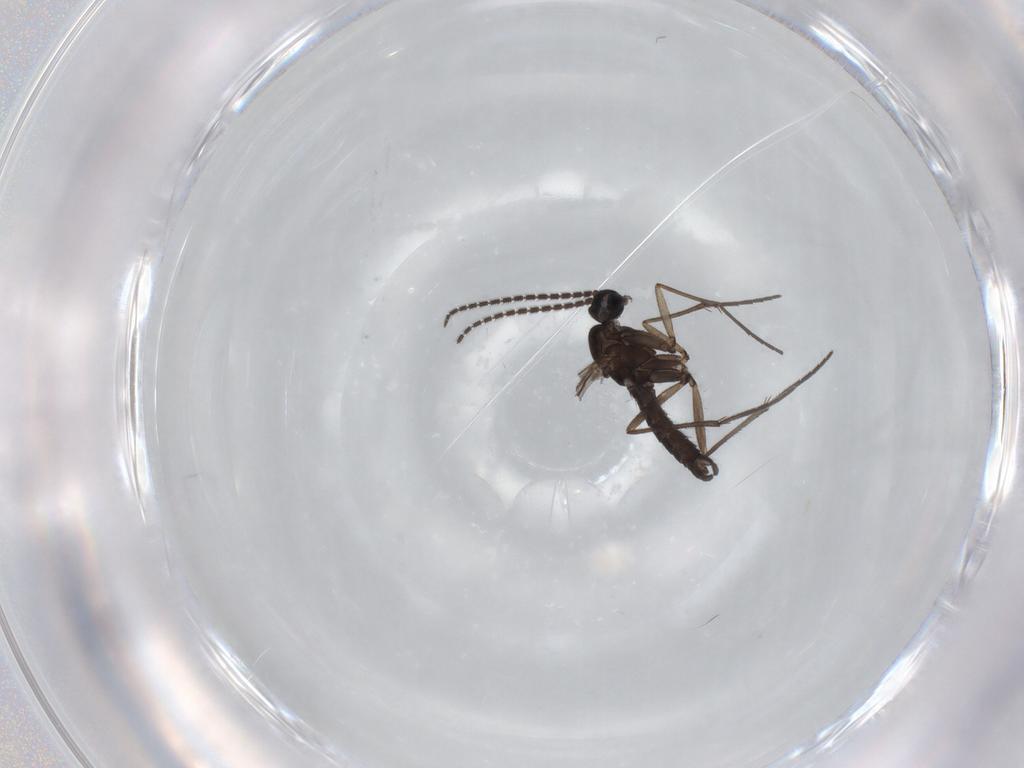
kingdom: Animalia
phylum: Arthropoda
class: Insecta
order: Diptera
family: Sciaridae
